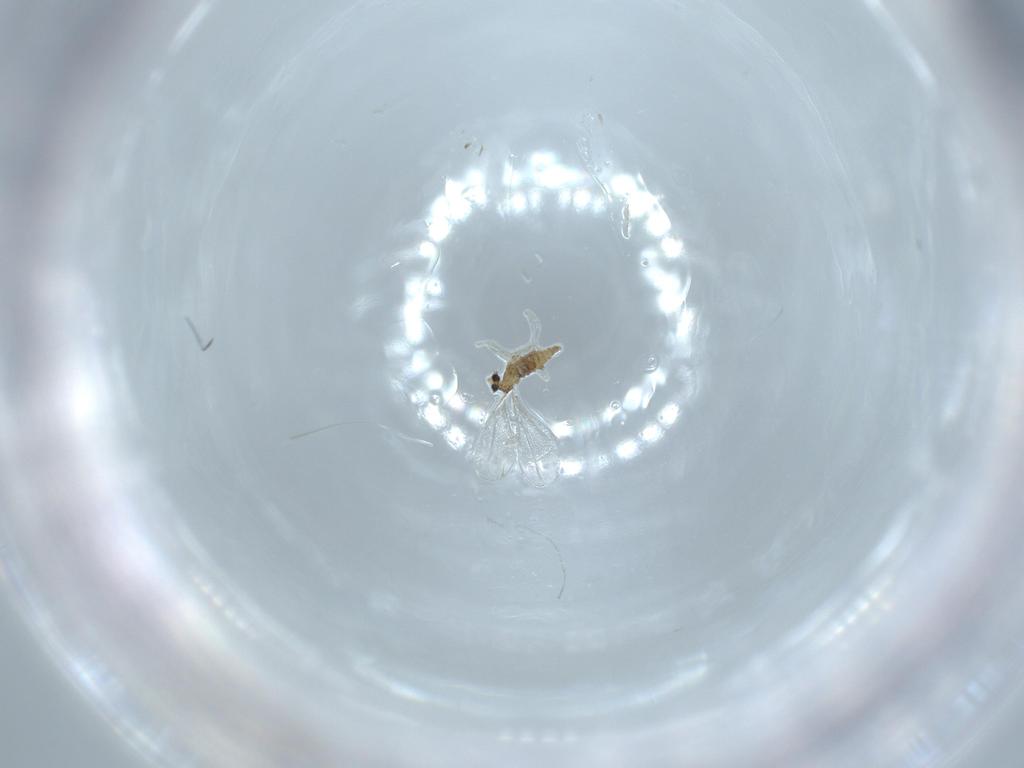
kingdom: Animalia
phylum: Arthropoda
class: Insecta
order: Diptera
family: Cecidomyiidae
